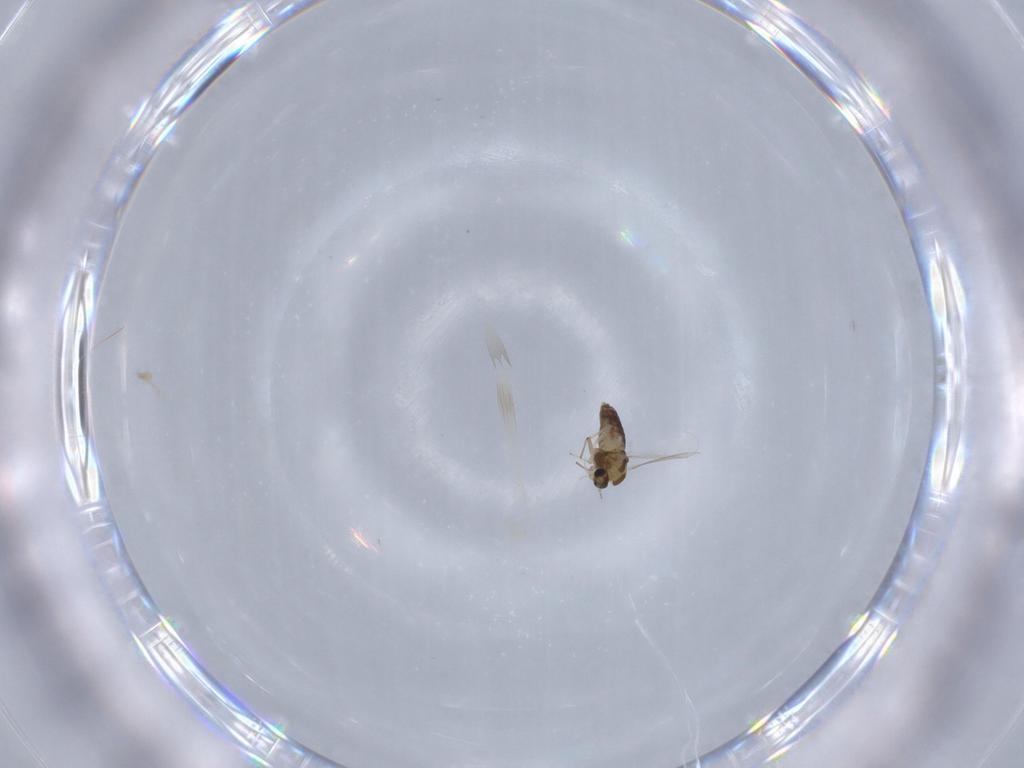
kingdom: Animalia
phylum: Arthropoda
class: Insecta
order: Diptera
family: Chironomidae
